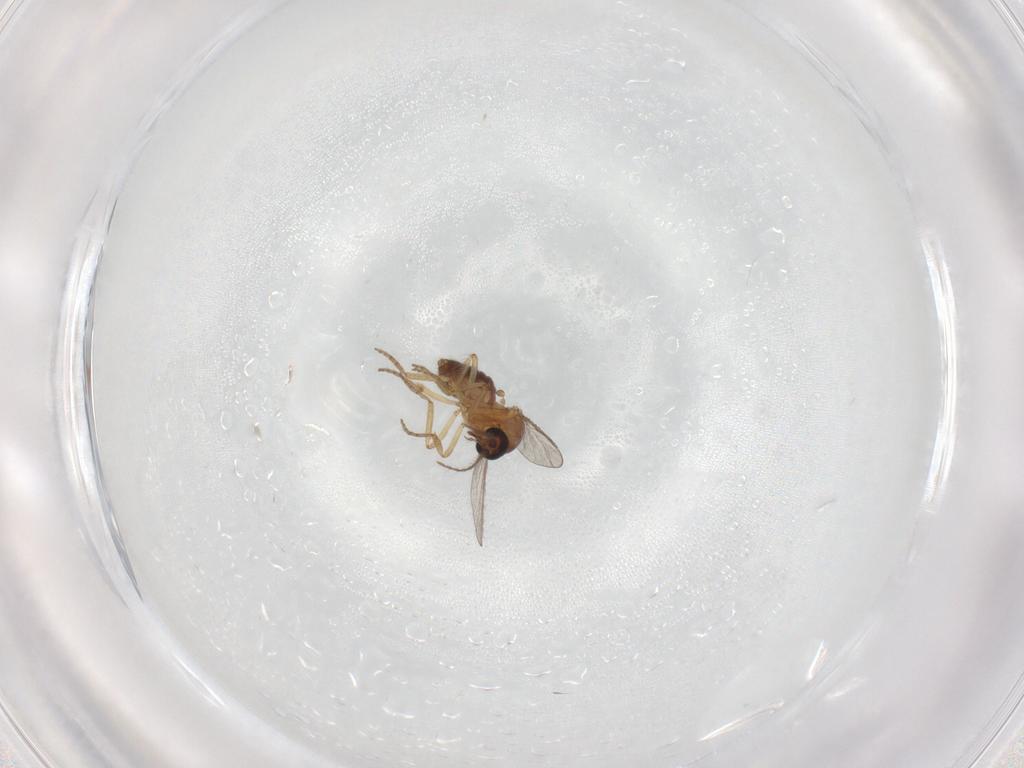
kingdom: Animalia
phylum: Arthropoda
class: Insecta
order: Diptera
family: Ceratopogonidae
